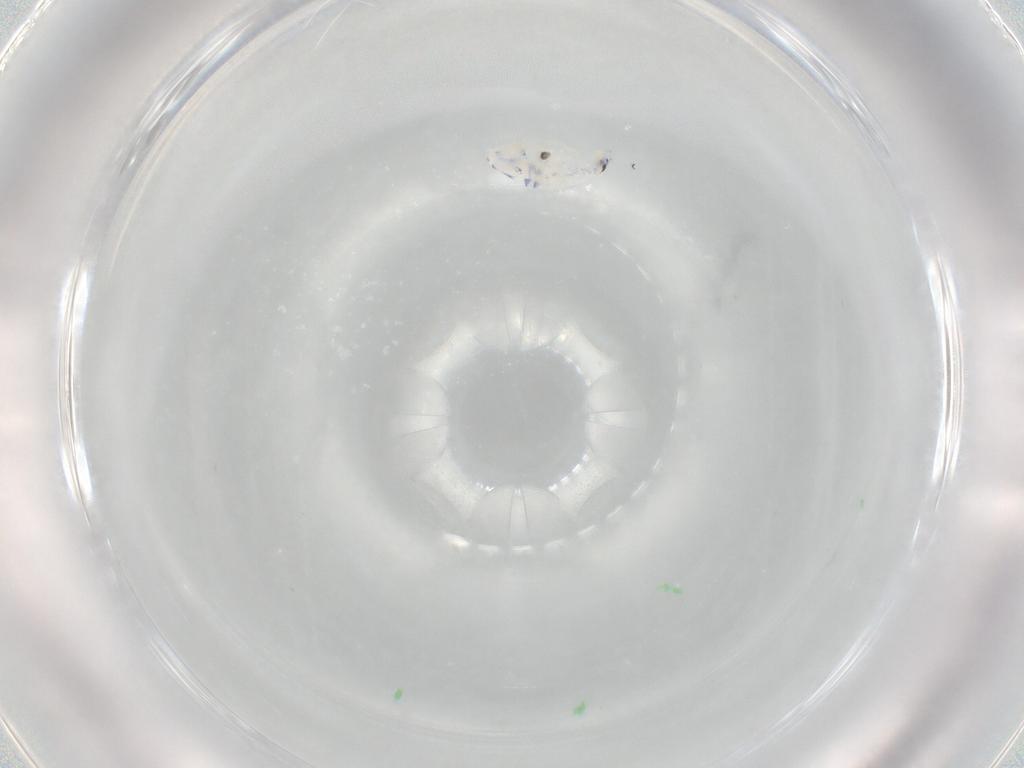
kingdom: Animalia
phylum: Arthropoda
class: Collembola
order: Entomobryomorpha
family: Entomobryidae
